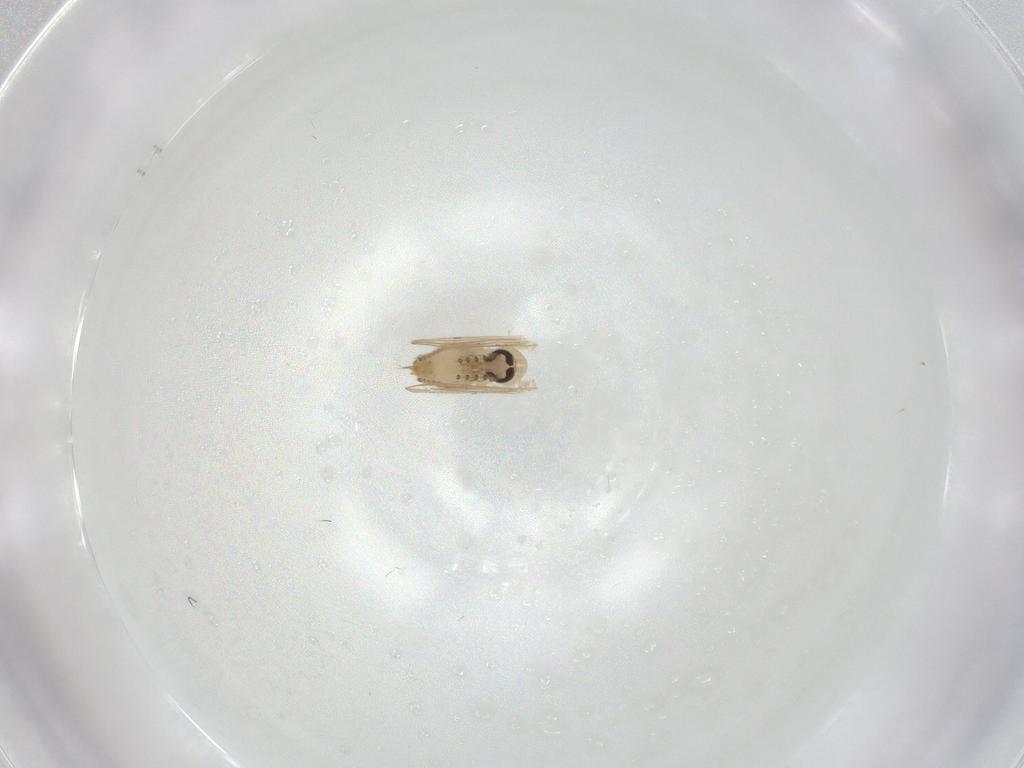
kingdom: Animalia
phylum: Arthropoda
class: Insecta
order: Diptera
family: Psychodidae
